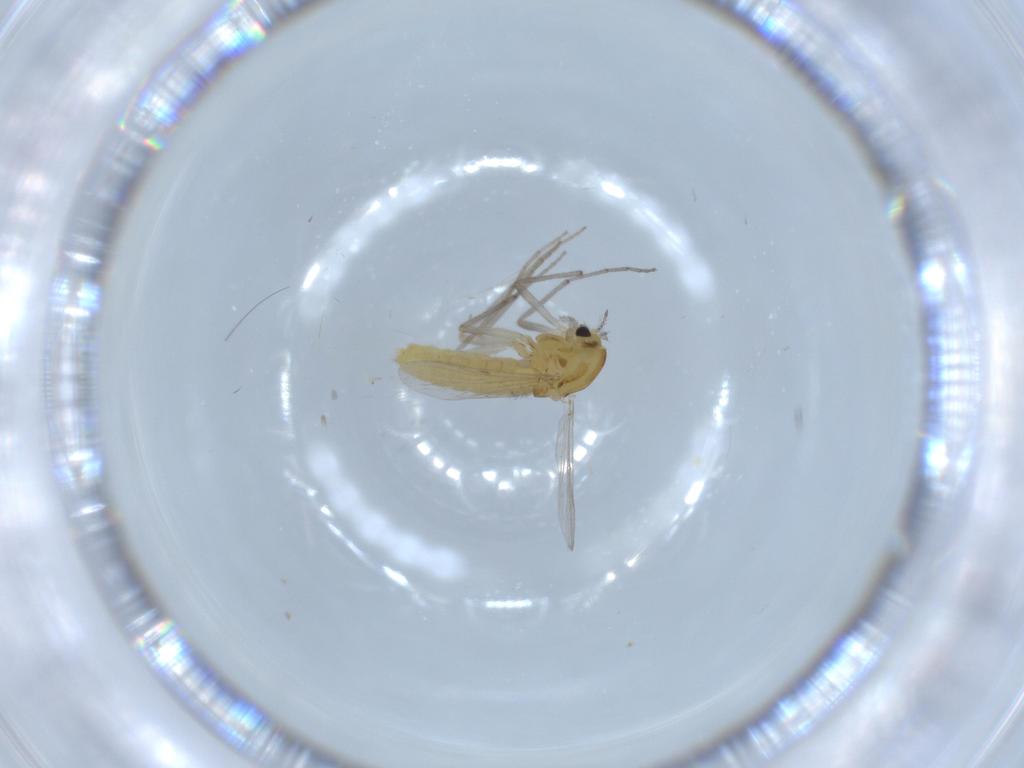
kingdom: Animalia
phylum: Arthropoda
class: Insecta
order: Diptera
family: Chironomidae
